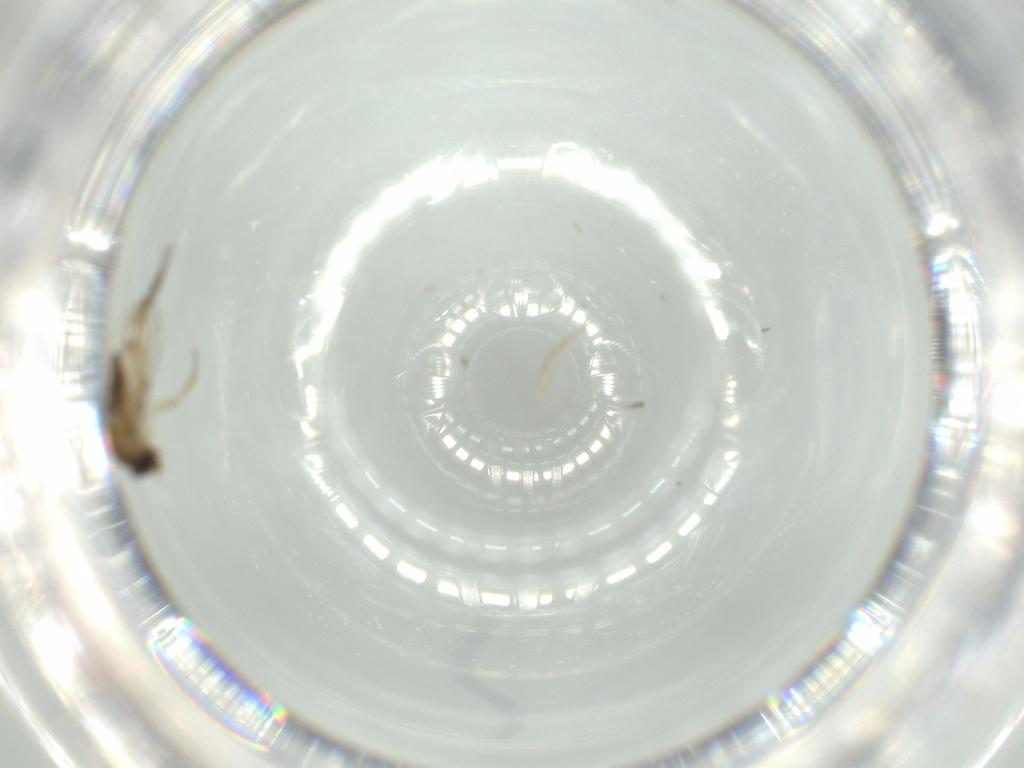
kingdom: Animalia
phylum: Arthropoda
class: Insecta
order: Diptera
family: Phoridae
